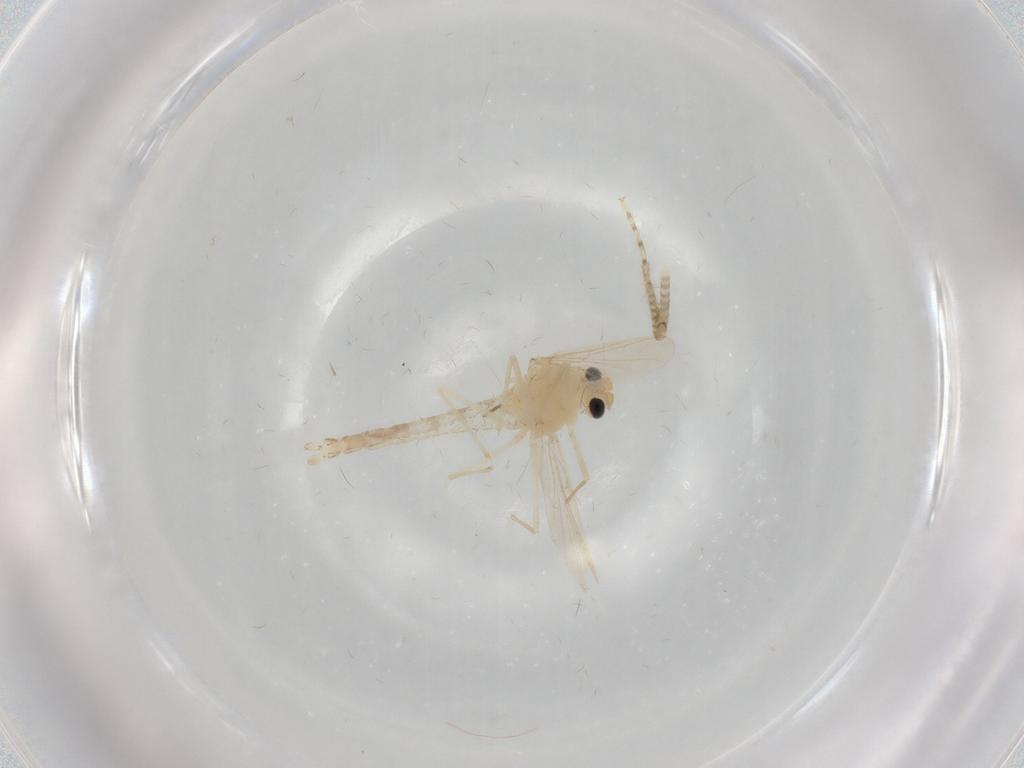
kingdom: Animalia
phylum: Arthropoda
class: Insecta
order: Diptera
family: Chironomidae
